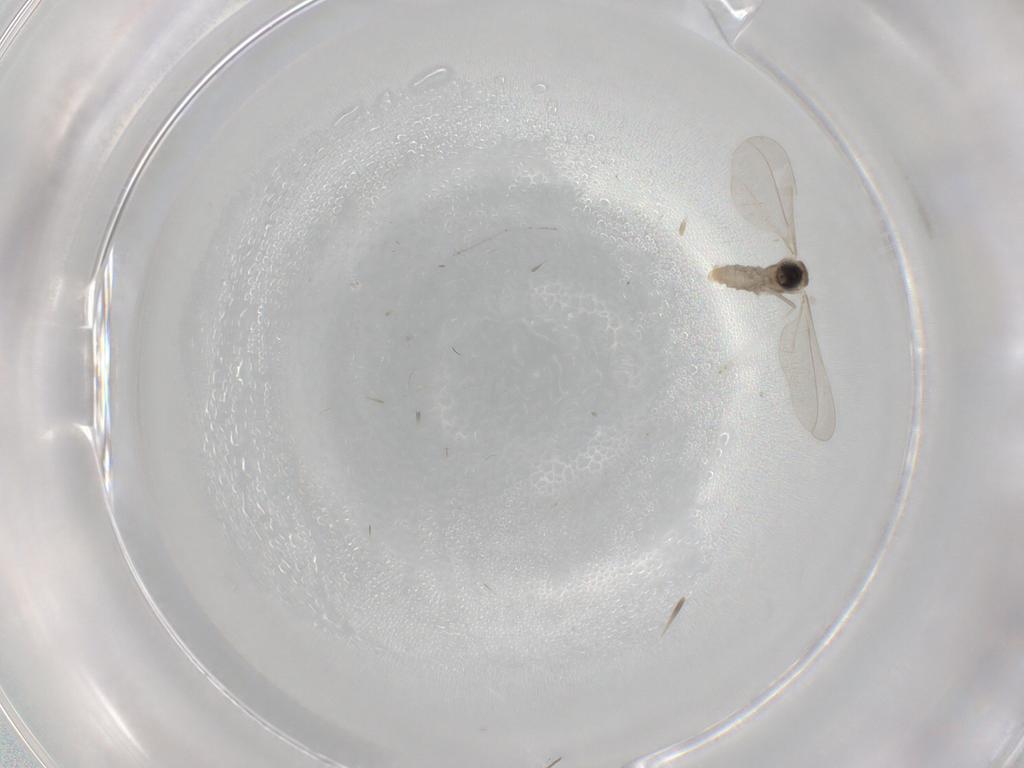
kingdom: Animalia
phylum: Arthropoda
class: Insecta
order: Diptera
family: Cecidomyiidae
